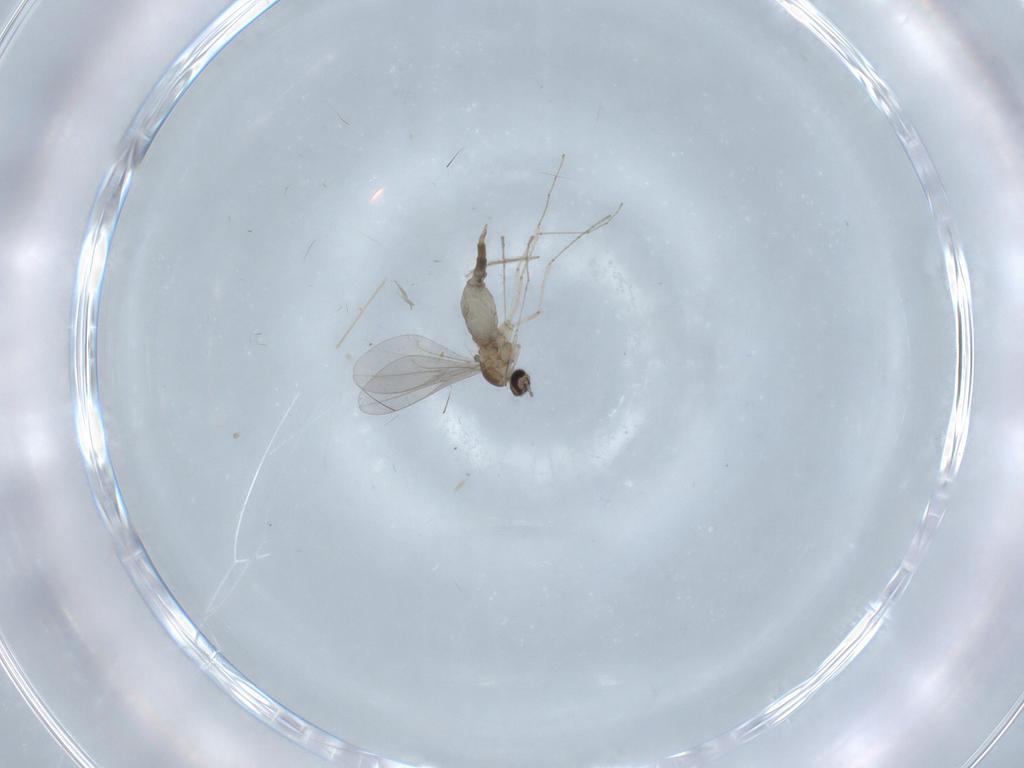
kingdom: Animalia
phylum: Arthropoda
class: Insecta
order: Diptera
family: Cecidomyiidae
